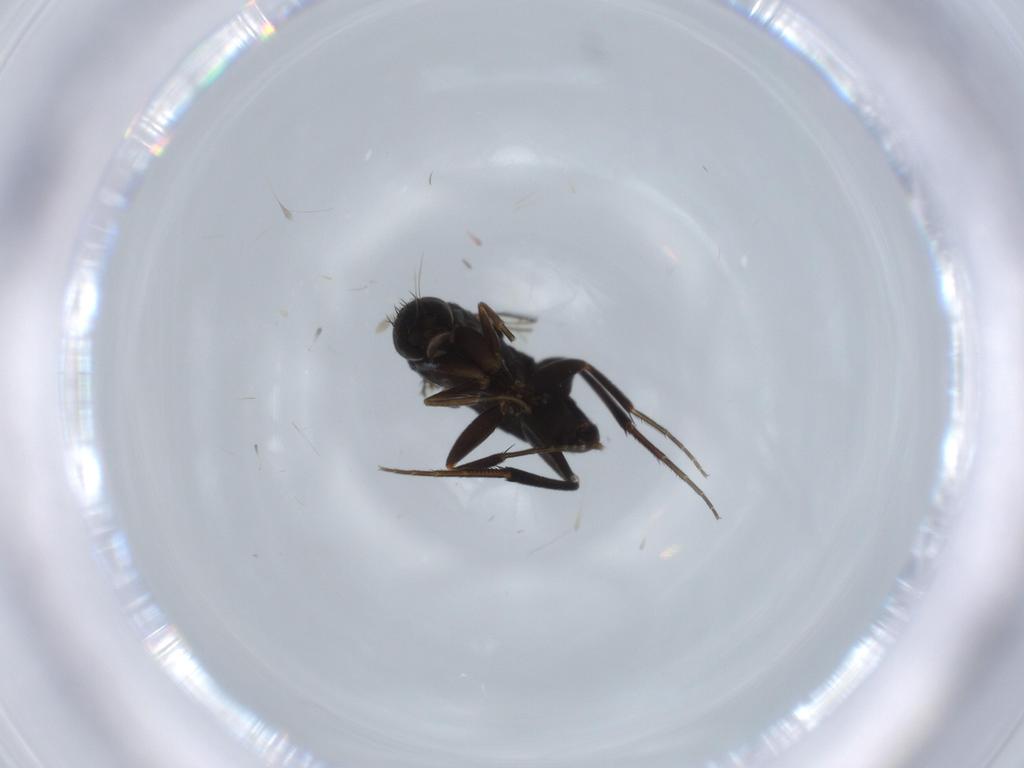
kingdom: Animalia
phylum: Arthropoda
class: Insecta
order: Diptera
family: Phoridae
